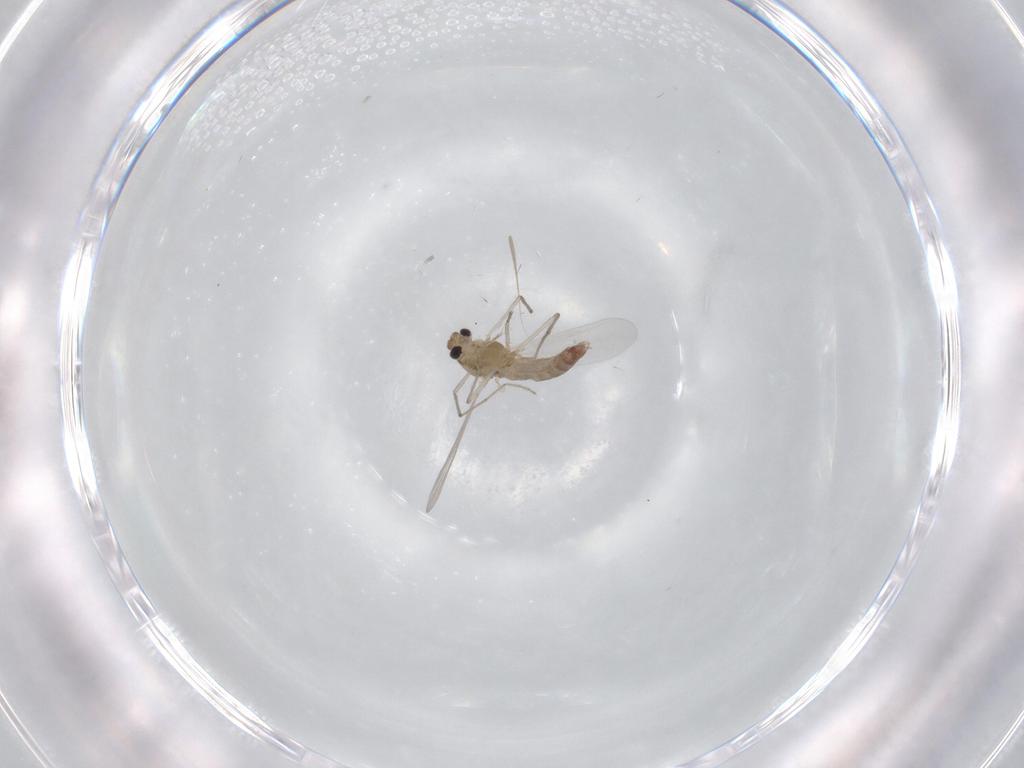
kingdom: Animalia
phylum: Arthropoda
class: Insecta
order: Diptera
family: Chironomidae
